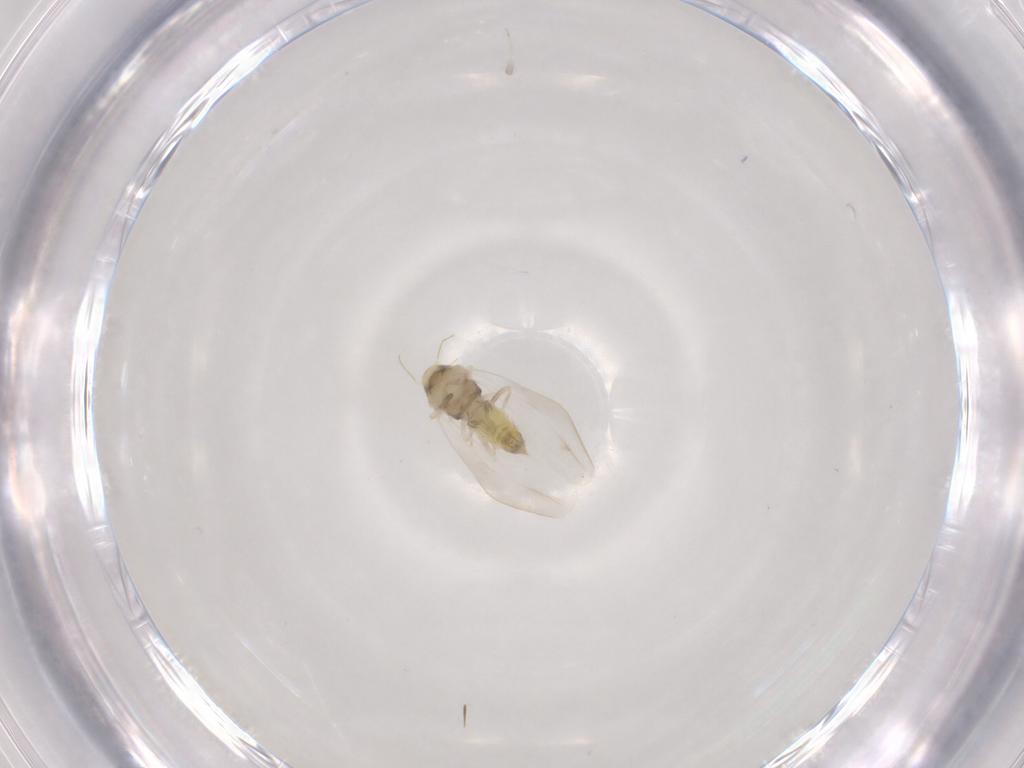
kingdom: Animalia
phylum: Arthropoda
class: Insecta
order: Hemiptera
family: Aleyrodidae
